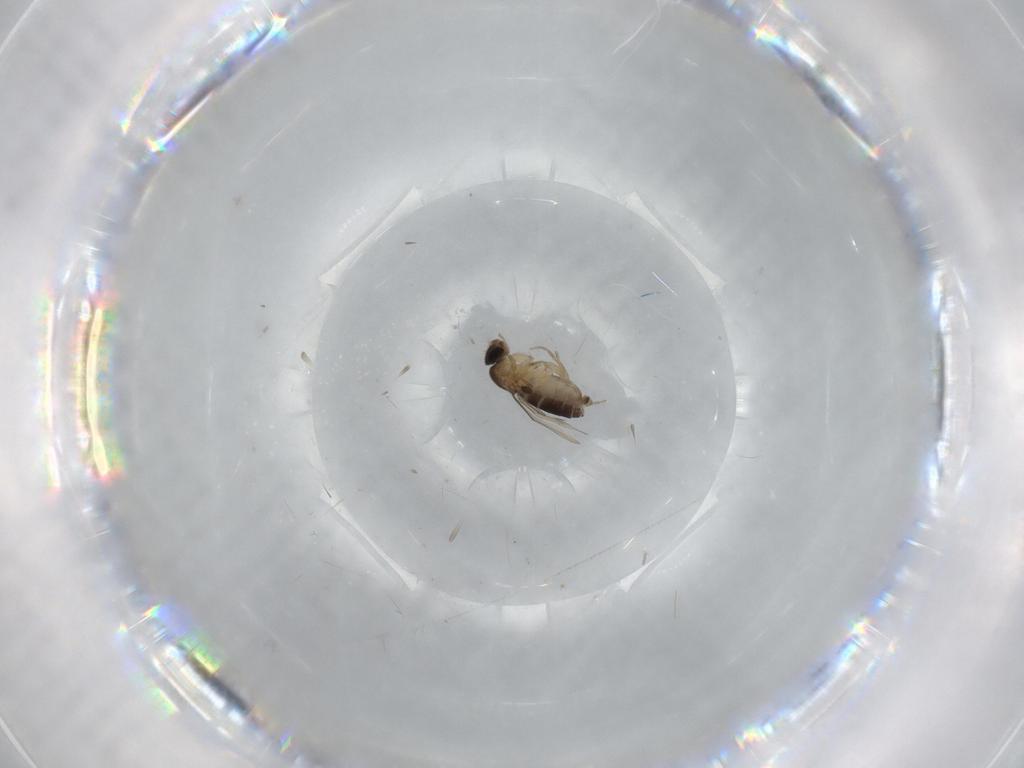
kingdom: Animalia
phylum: Arthropoda
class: Insecta
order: Diptera
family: Phoridae
